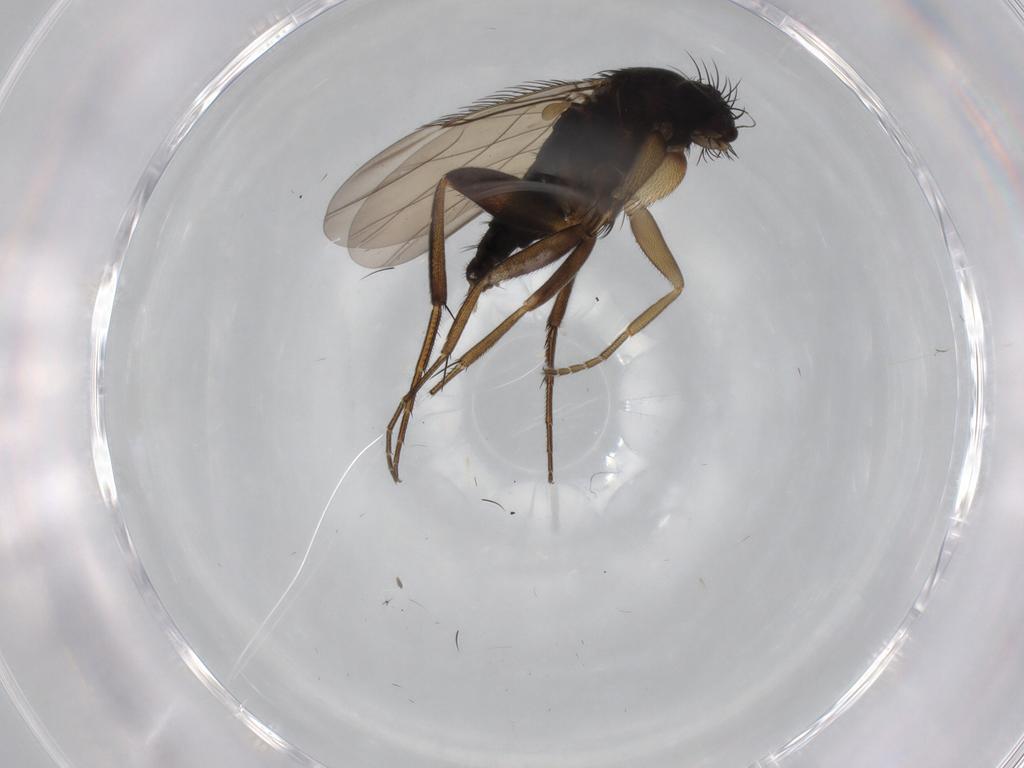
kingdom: Animalia
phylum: Arthropoda
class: Insecta
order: Diptera
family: Phoridae
